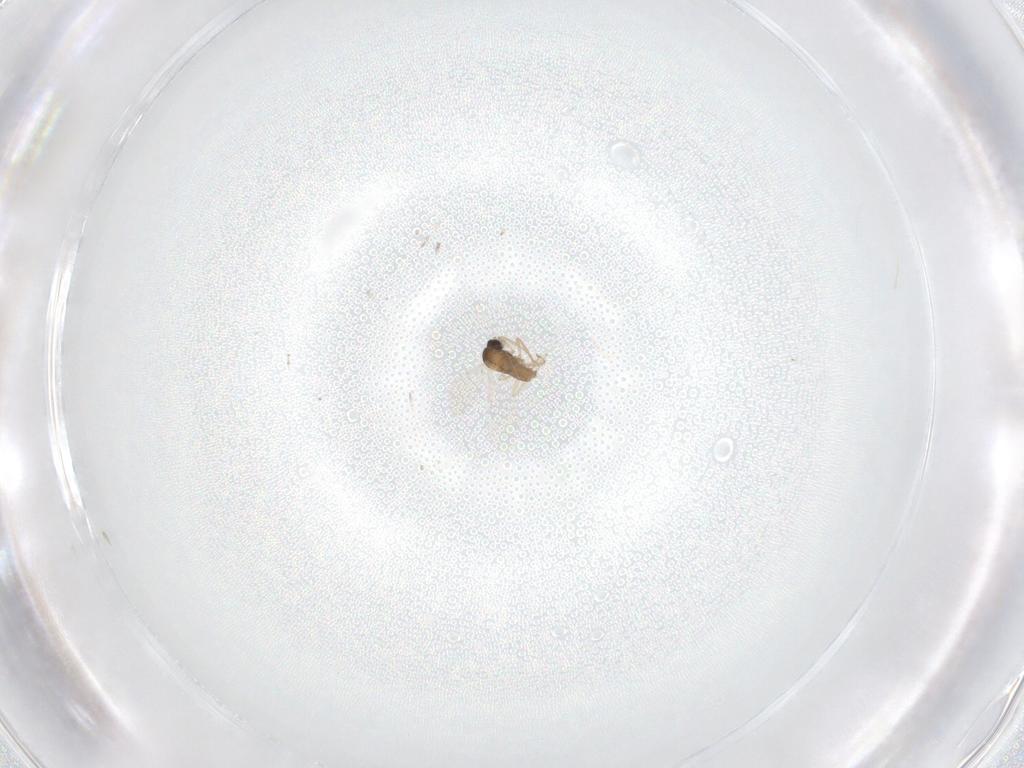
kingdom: Animalia
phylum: Arthropoda
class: Insecta
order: Diptera
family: Cecidomyiidae
